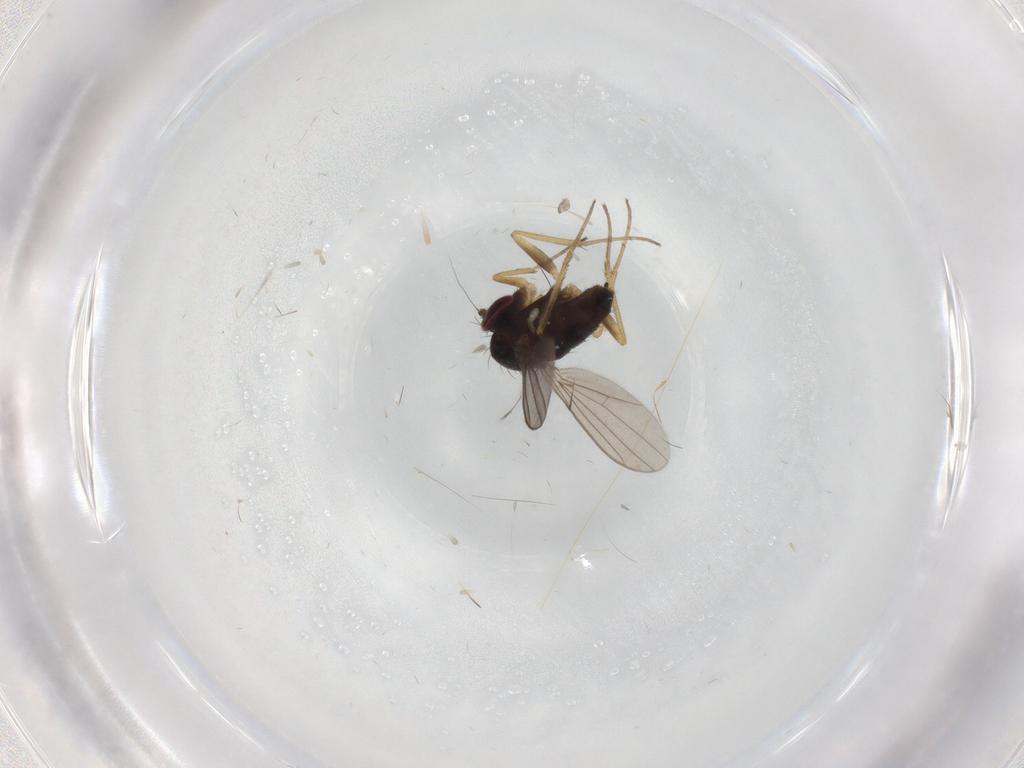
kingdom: Animalia
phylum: Arthropoda
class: Insecta
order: Diptera
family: Dolichopodidae
